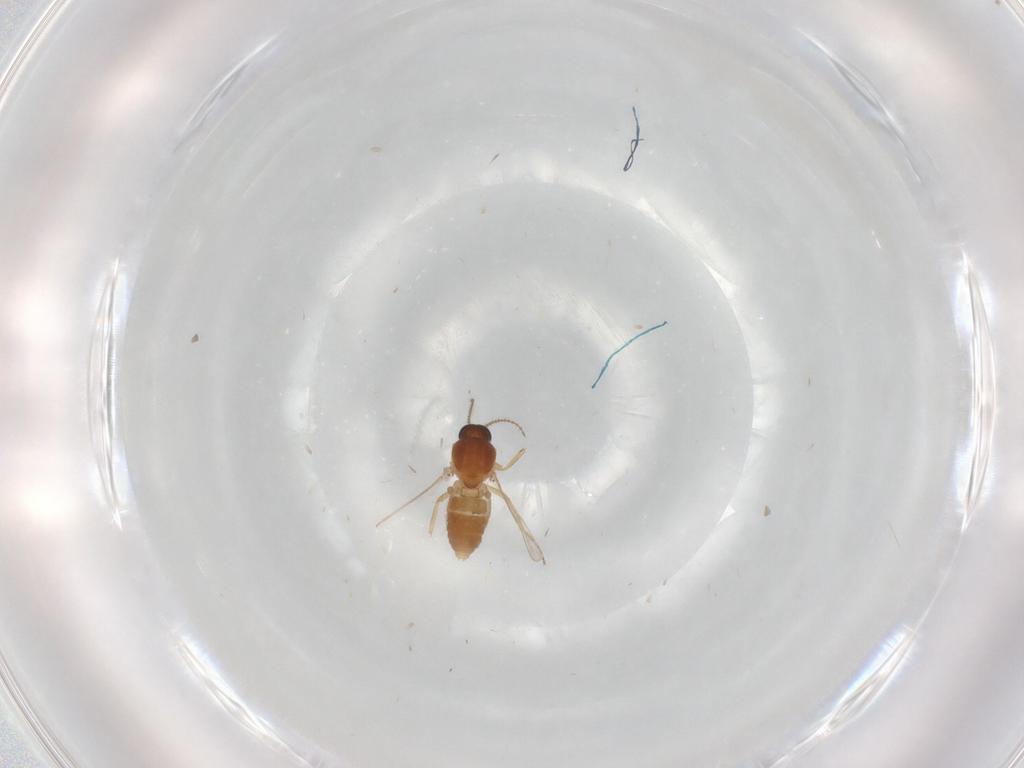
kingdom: Animalia
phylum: Arthropoda
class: Insecta
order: Diptera
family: Ceratopogonidae
